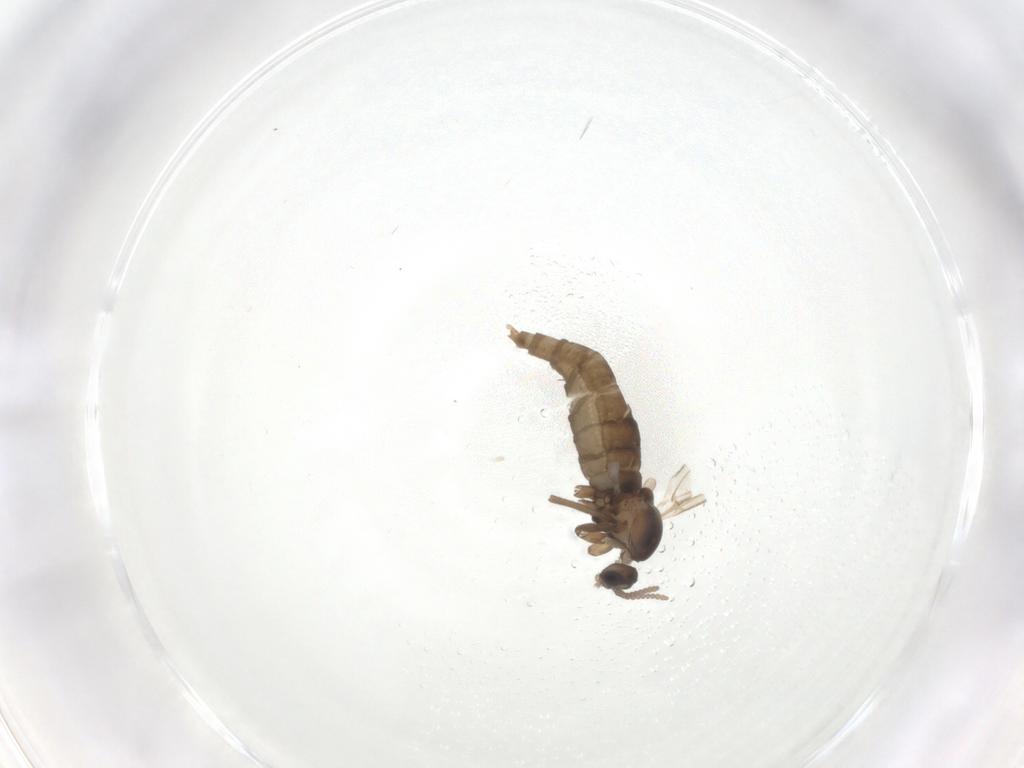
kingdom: Animalia
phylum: Arthropoda
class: Insecta
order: Diptera
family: Cecidomyiidae
